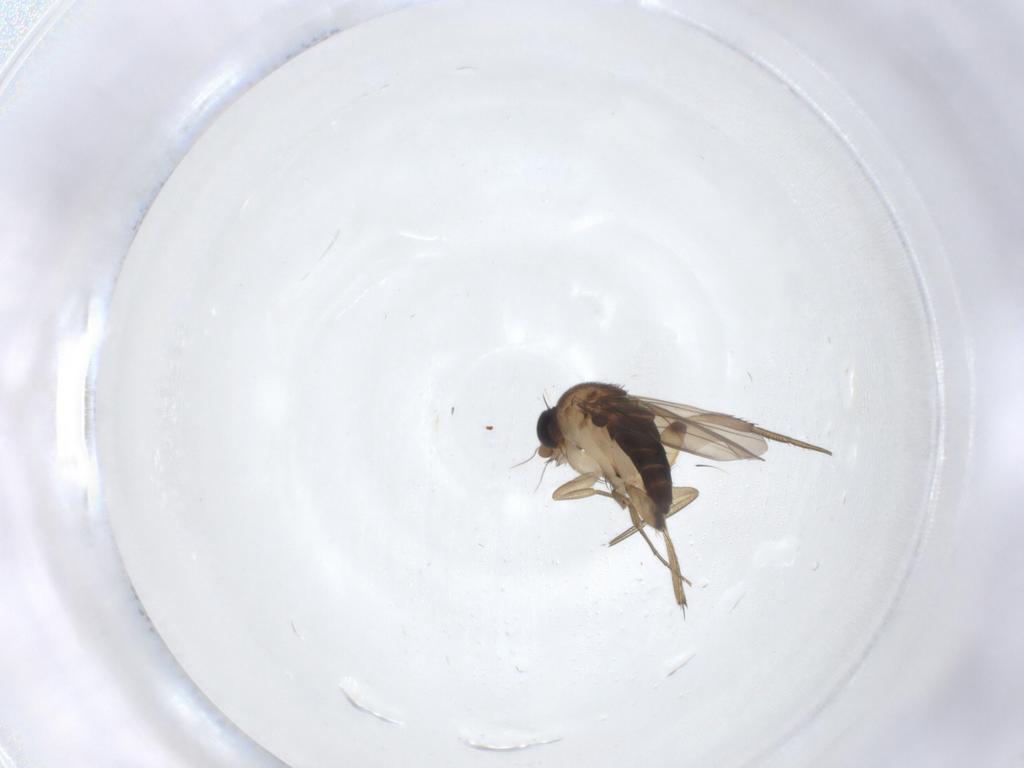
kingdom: Animalia
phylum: Arthropoda
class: Insecta
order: Diptera
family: Phoridae
